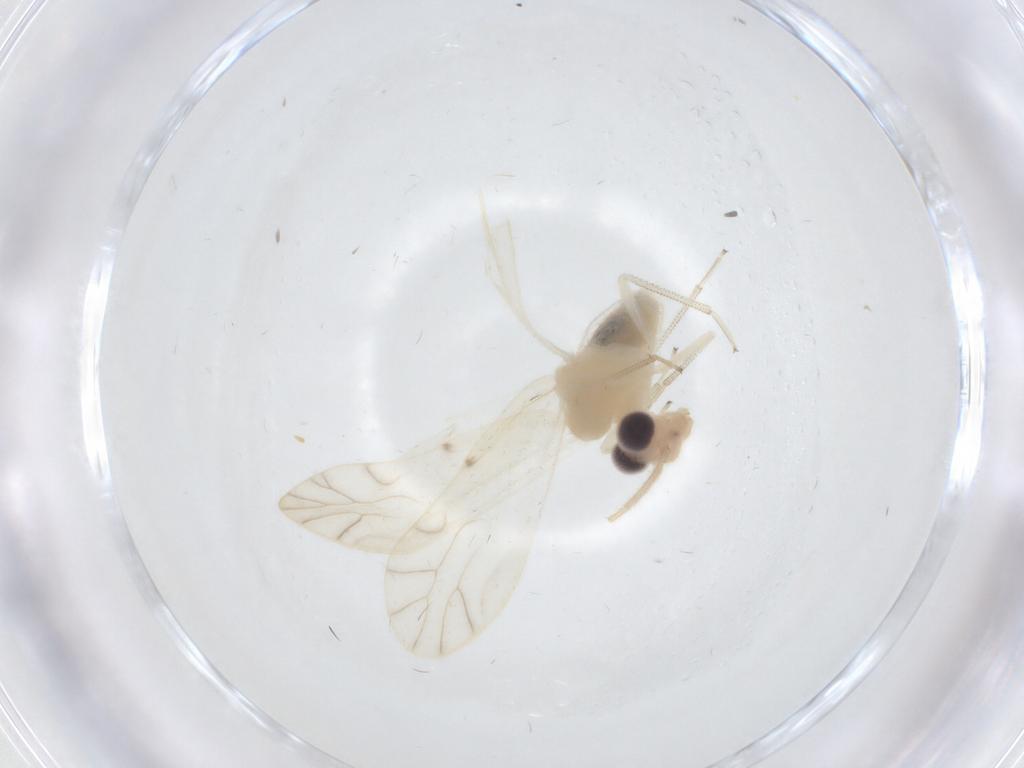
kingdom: Animalia
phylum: Arthropoda
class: Insecta
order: Psocodea
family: Caeciliusidae
